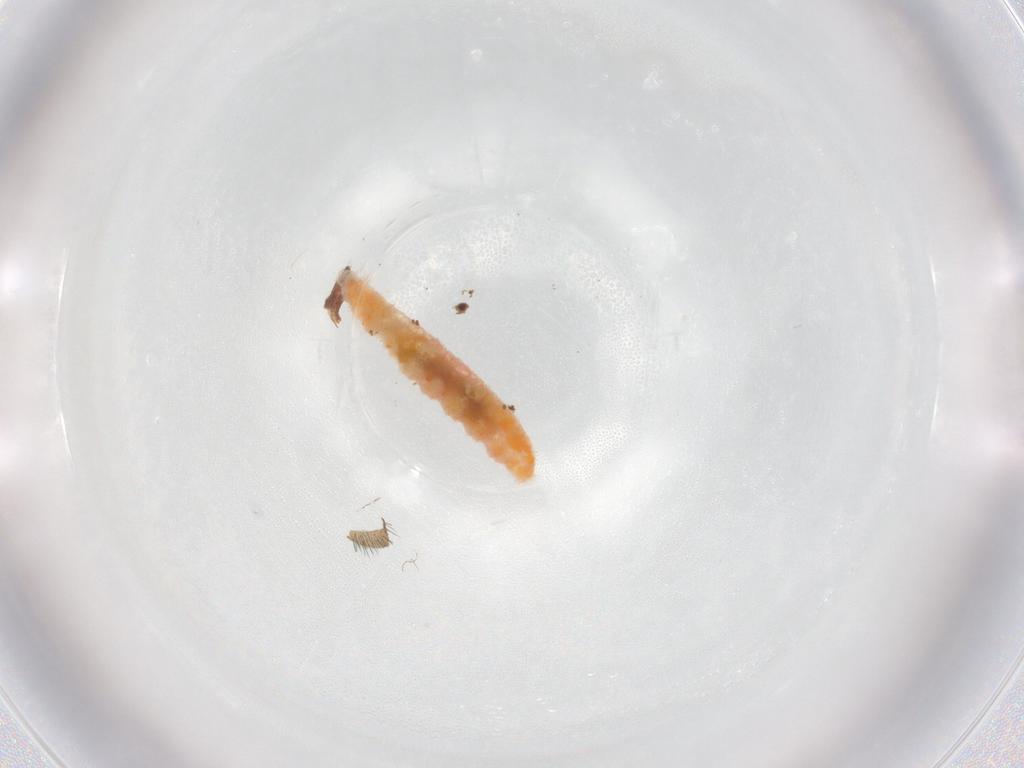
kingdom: Animalia
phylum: Arthropoda
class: Insecta
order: Diptera
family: Cecidomyiidae
